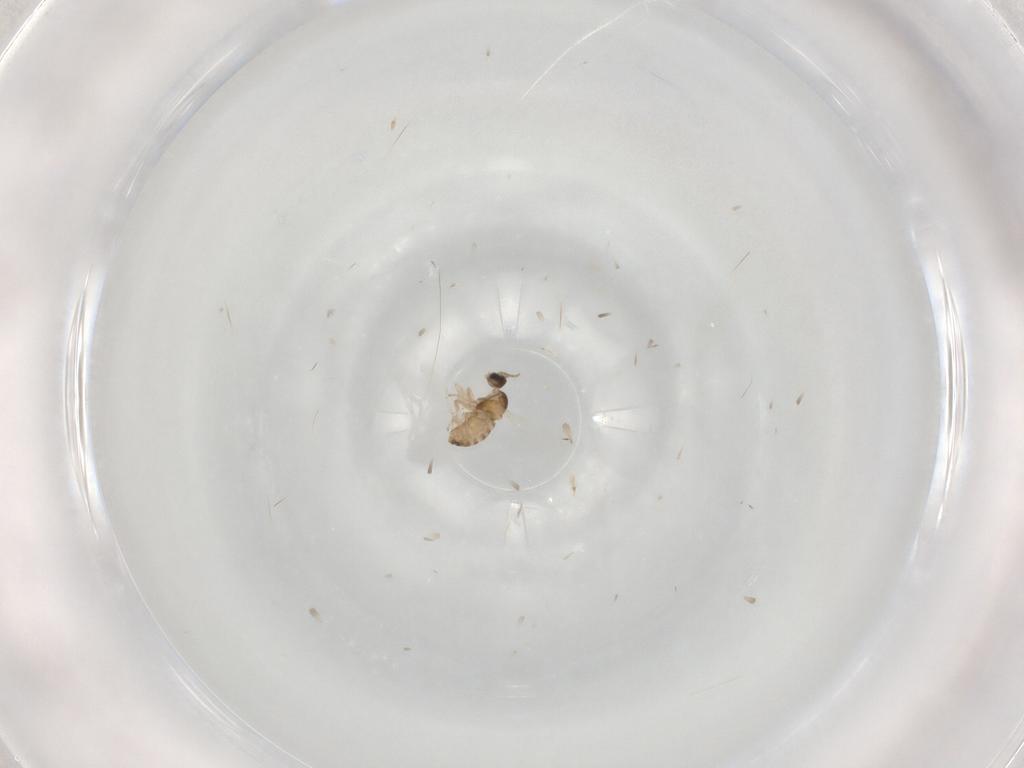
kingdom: Animalia
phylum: Arthropoda
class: Insecta
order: Diptera
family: Cecidomyiidae
